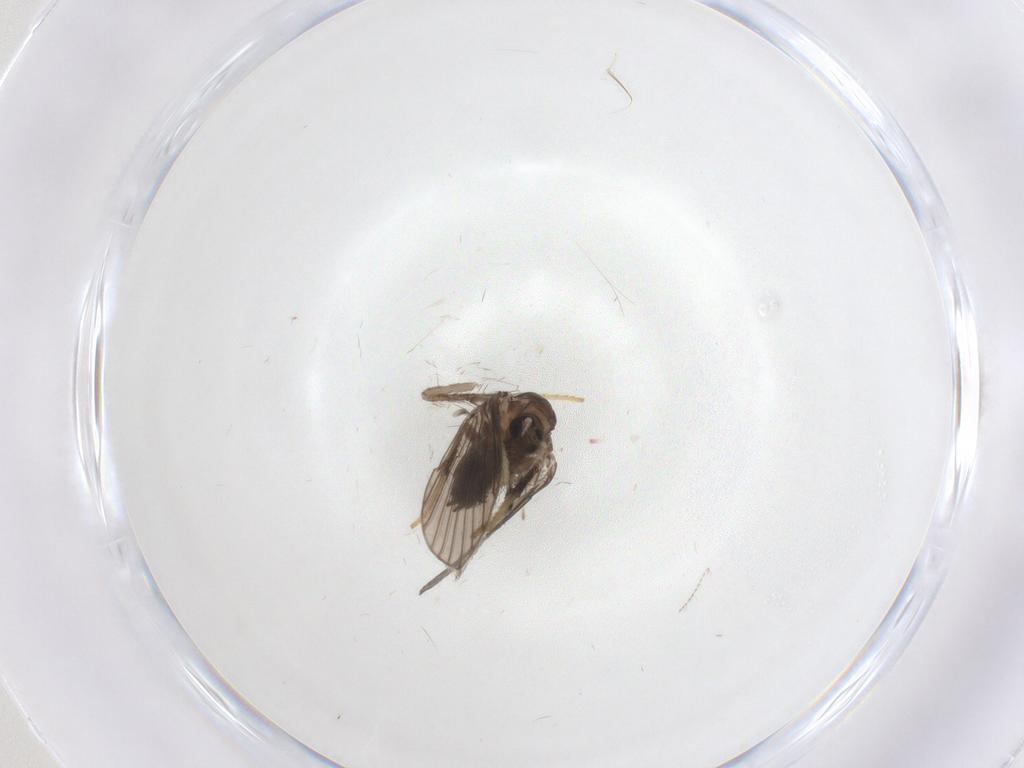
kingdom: Animalia
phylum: Arthropoda
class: Insecta
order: Diptera
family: Psychodidae
